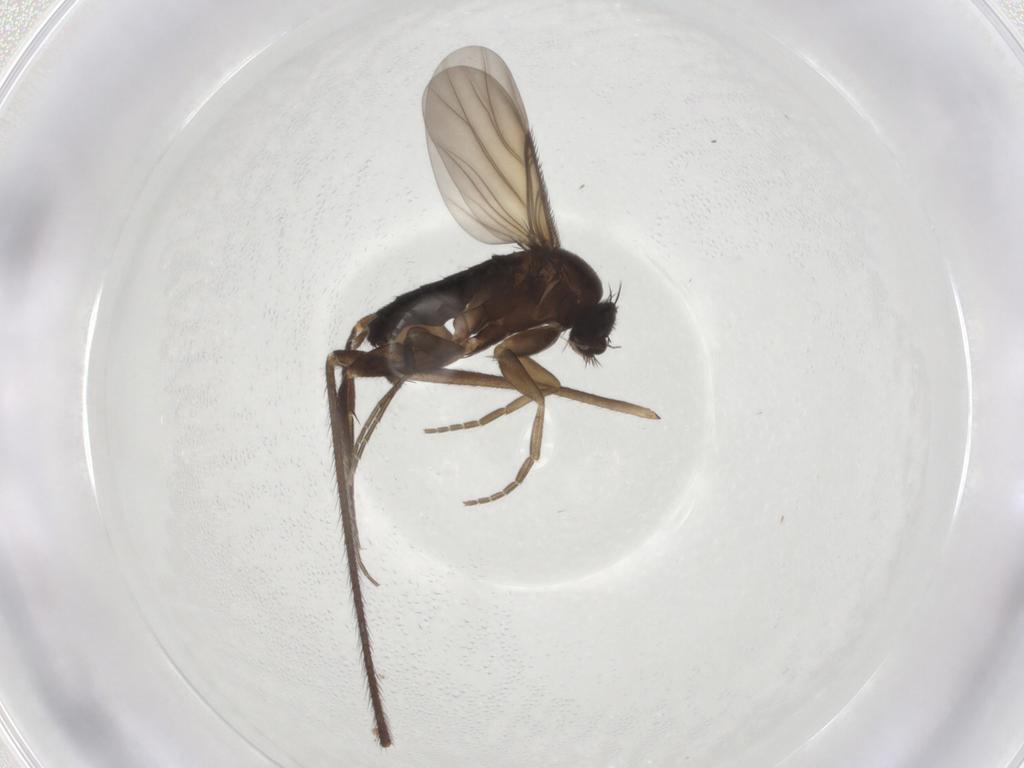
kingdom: Animalia
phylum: Arthropoda
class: Insecta
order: Diptera
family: Phoridae
